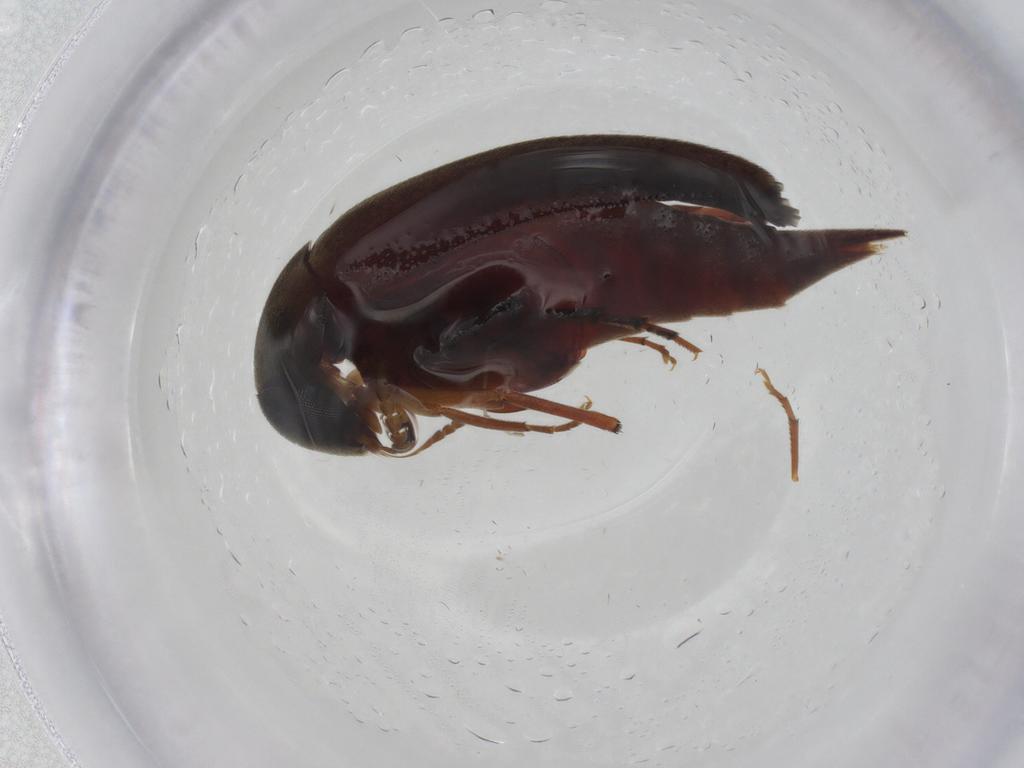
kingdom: Animalia
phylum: Arthropoda
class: Insecta
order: Coleoptera
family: Mordellidae
